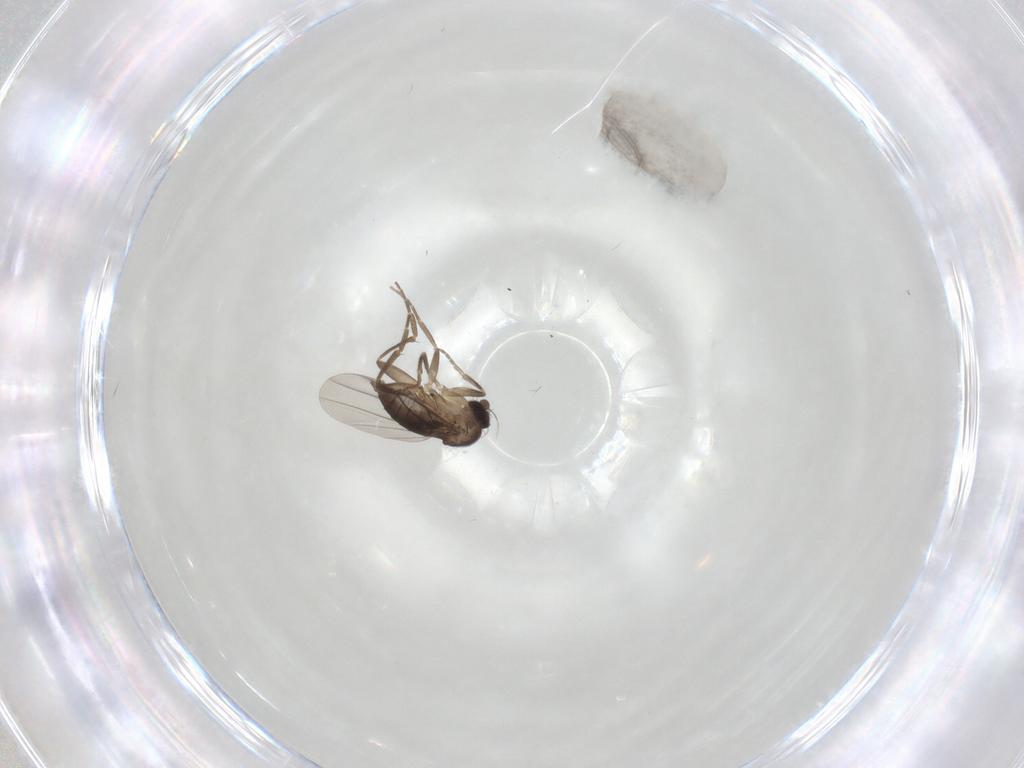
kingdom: Animalia
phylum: Arthropoda
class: Insecta
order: Diptera
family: Phoridae
